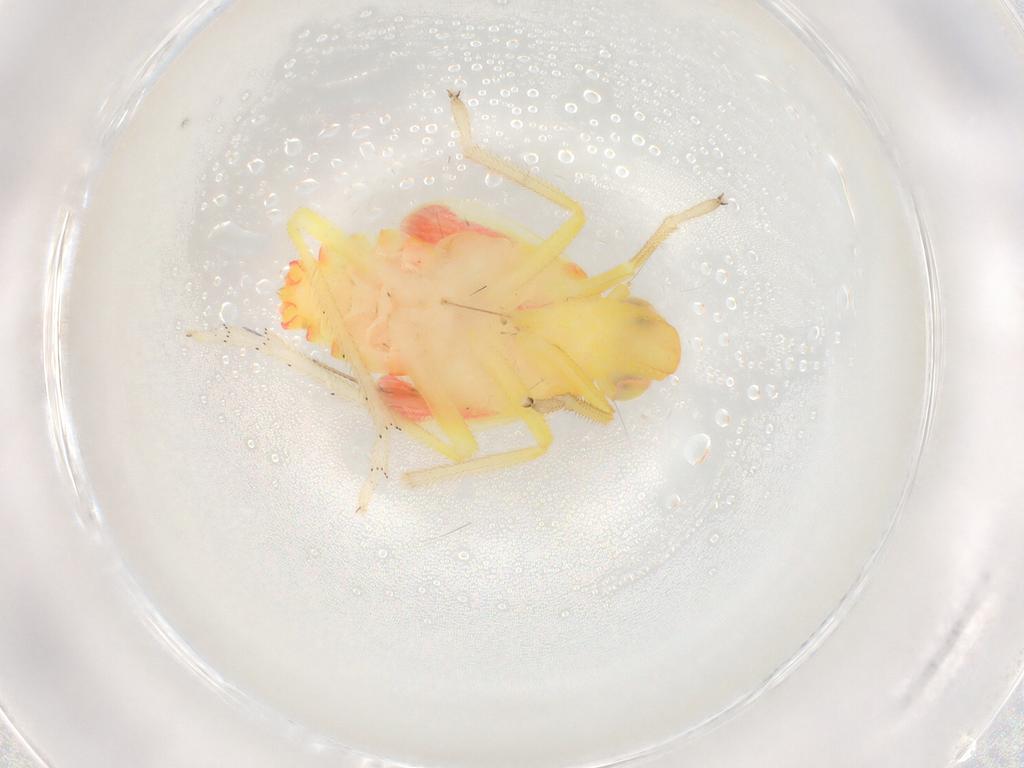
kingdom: Animalia
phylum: Arthropoda
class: Insecta
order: Hemiptera
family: Tropiduchidae
